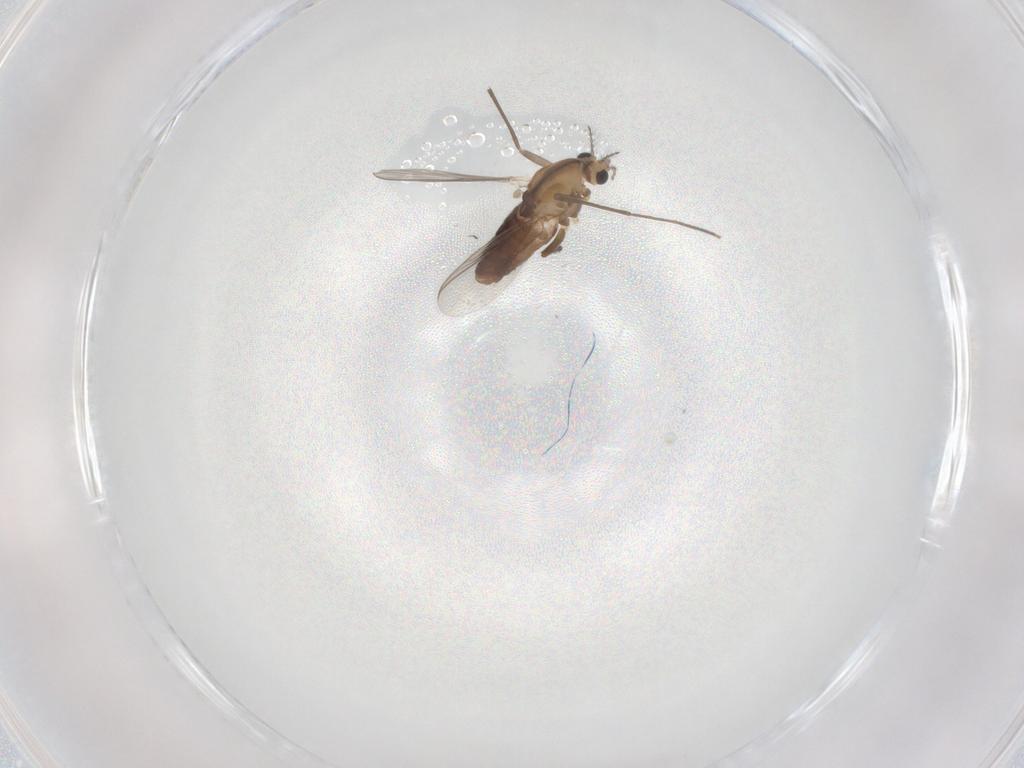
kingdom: Animalia
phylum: Arthropoda
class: Insecta
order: Diptera
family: Chironomidae
